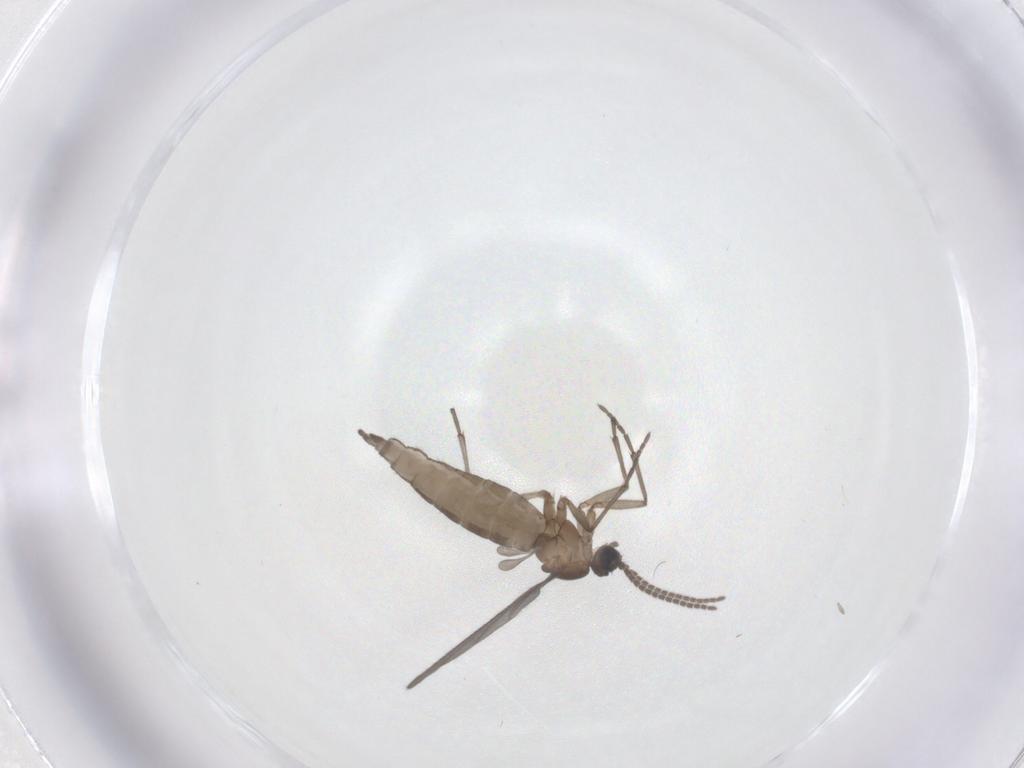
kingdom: Animalia
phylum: Arthropoda
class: Insecta
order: Diptera
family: Sciaridae
